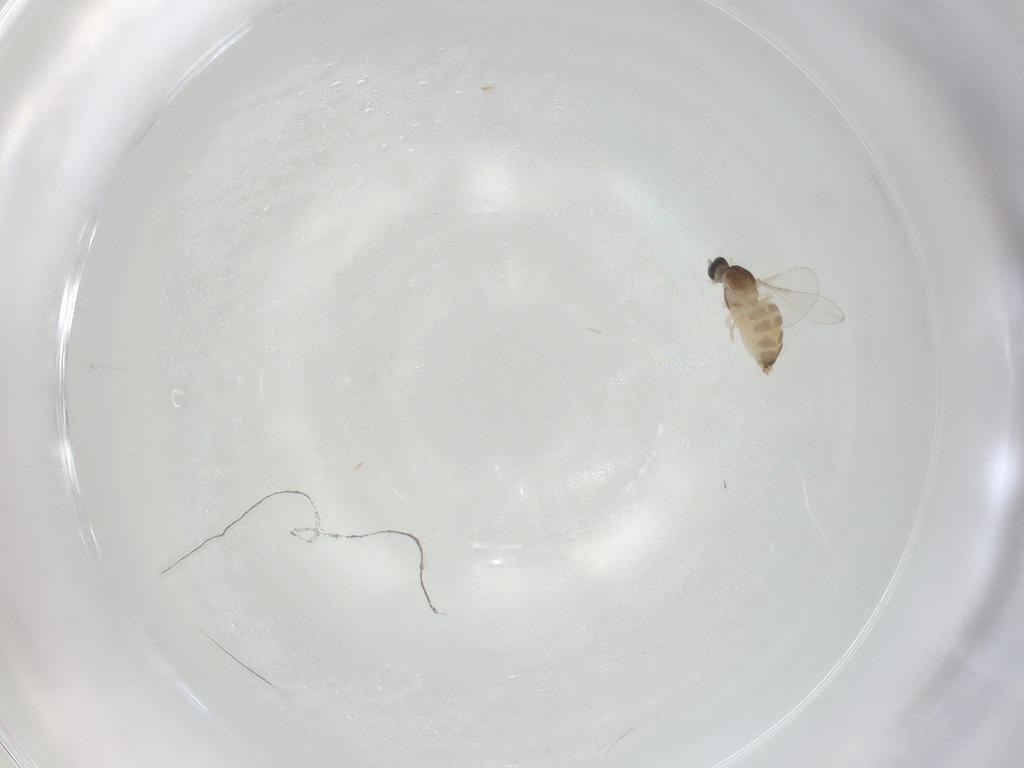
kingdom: Animalia
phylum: Arthropoda
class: Insecta
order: Diptera
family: Cecidomyiidae
